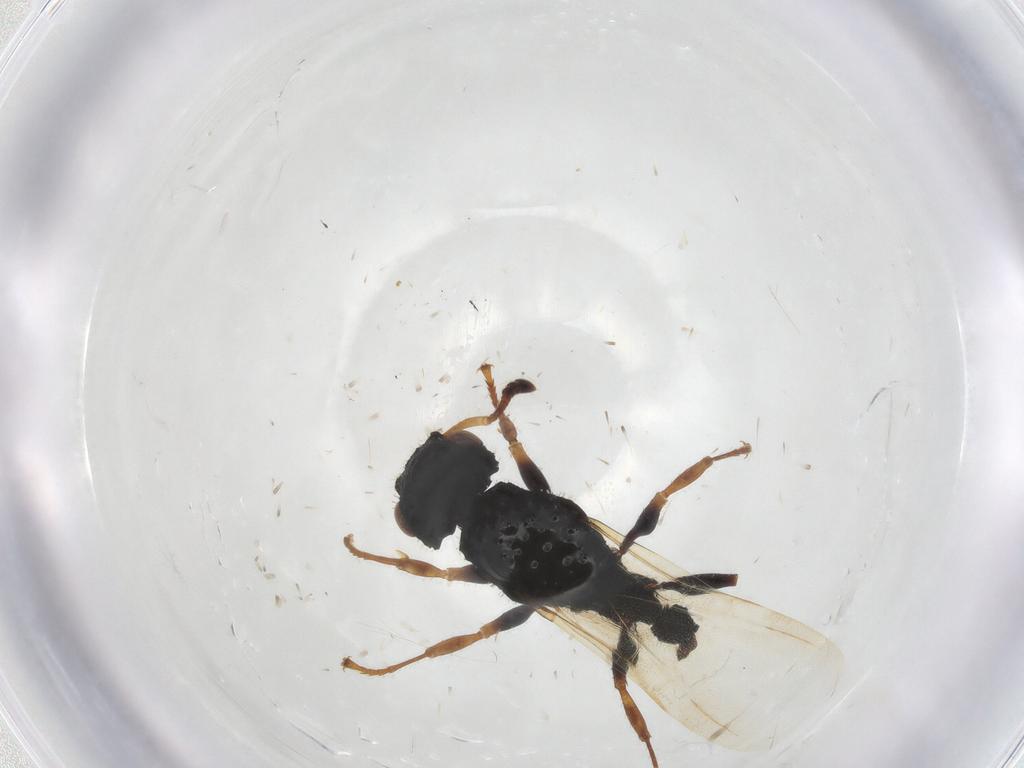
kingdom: Animalia
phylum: Arthropoda
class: Insecta
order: Hymenoptera
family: Formicidae
